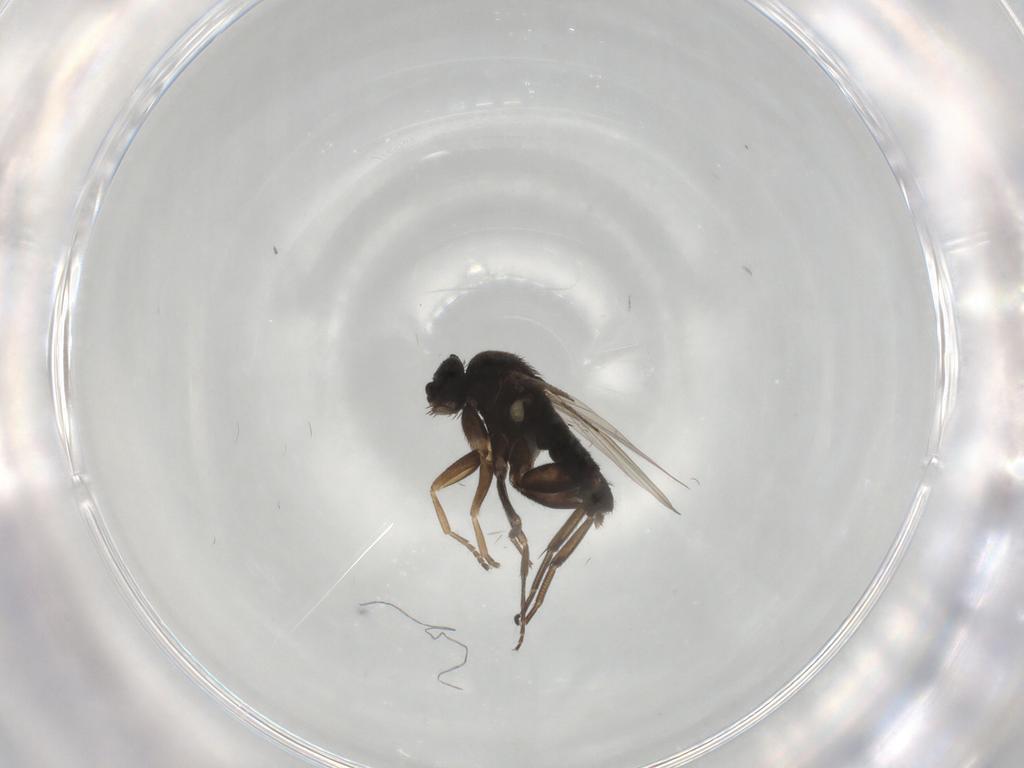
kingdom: Animalia
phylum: Arthropoda
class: Insecta
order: Diptera
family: Phoridae
